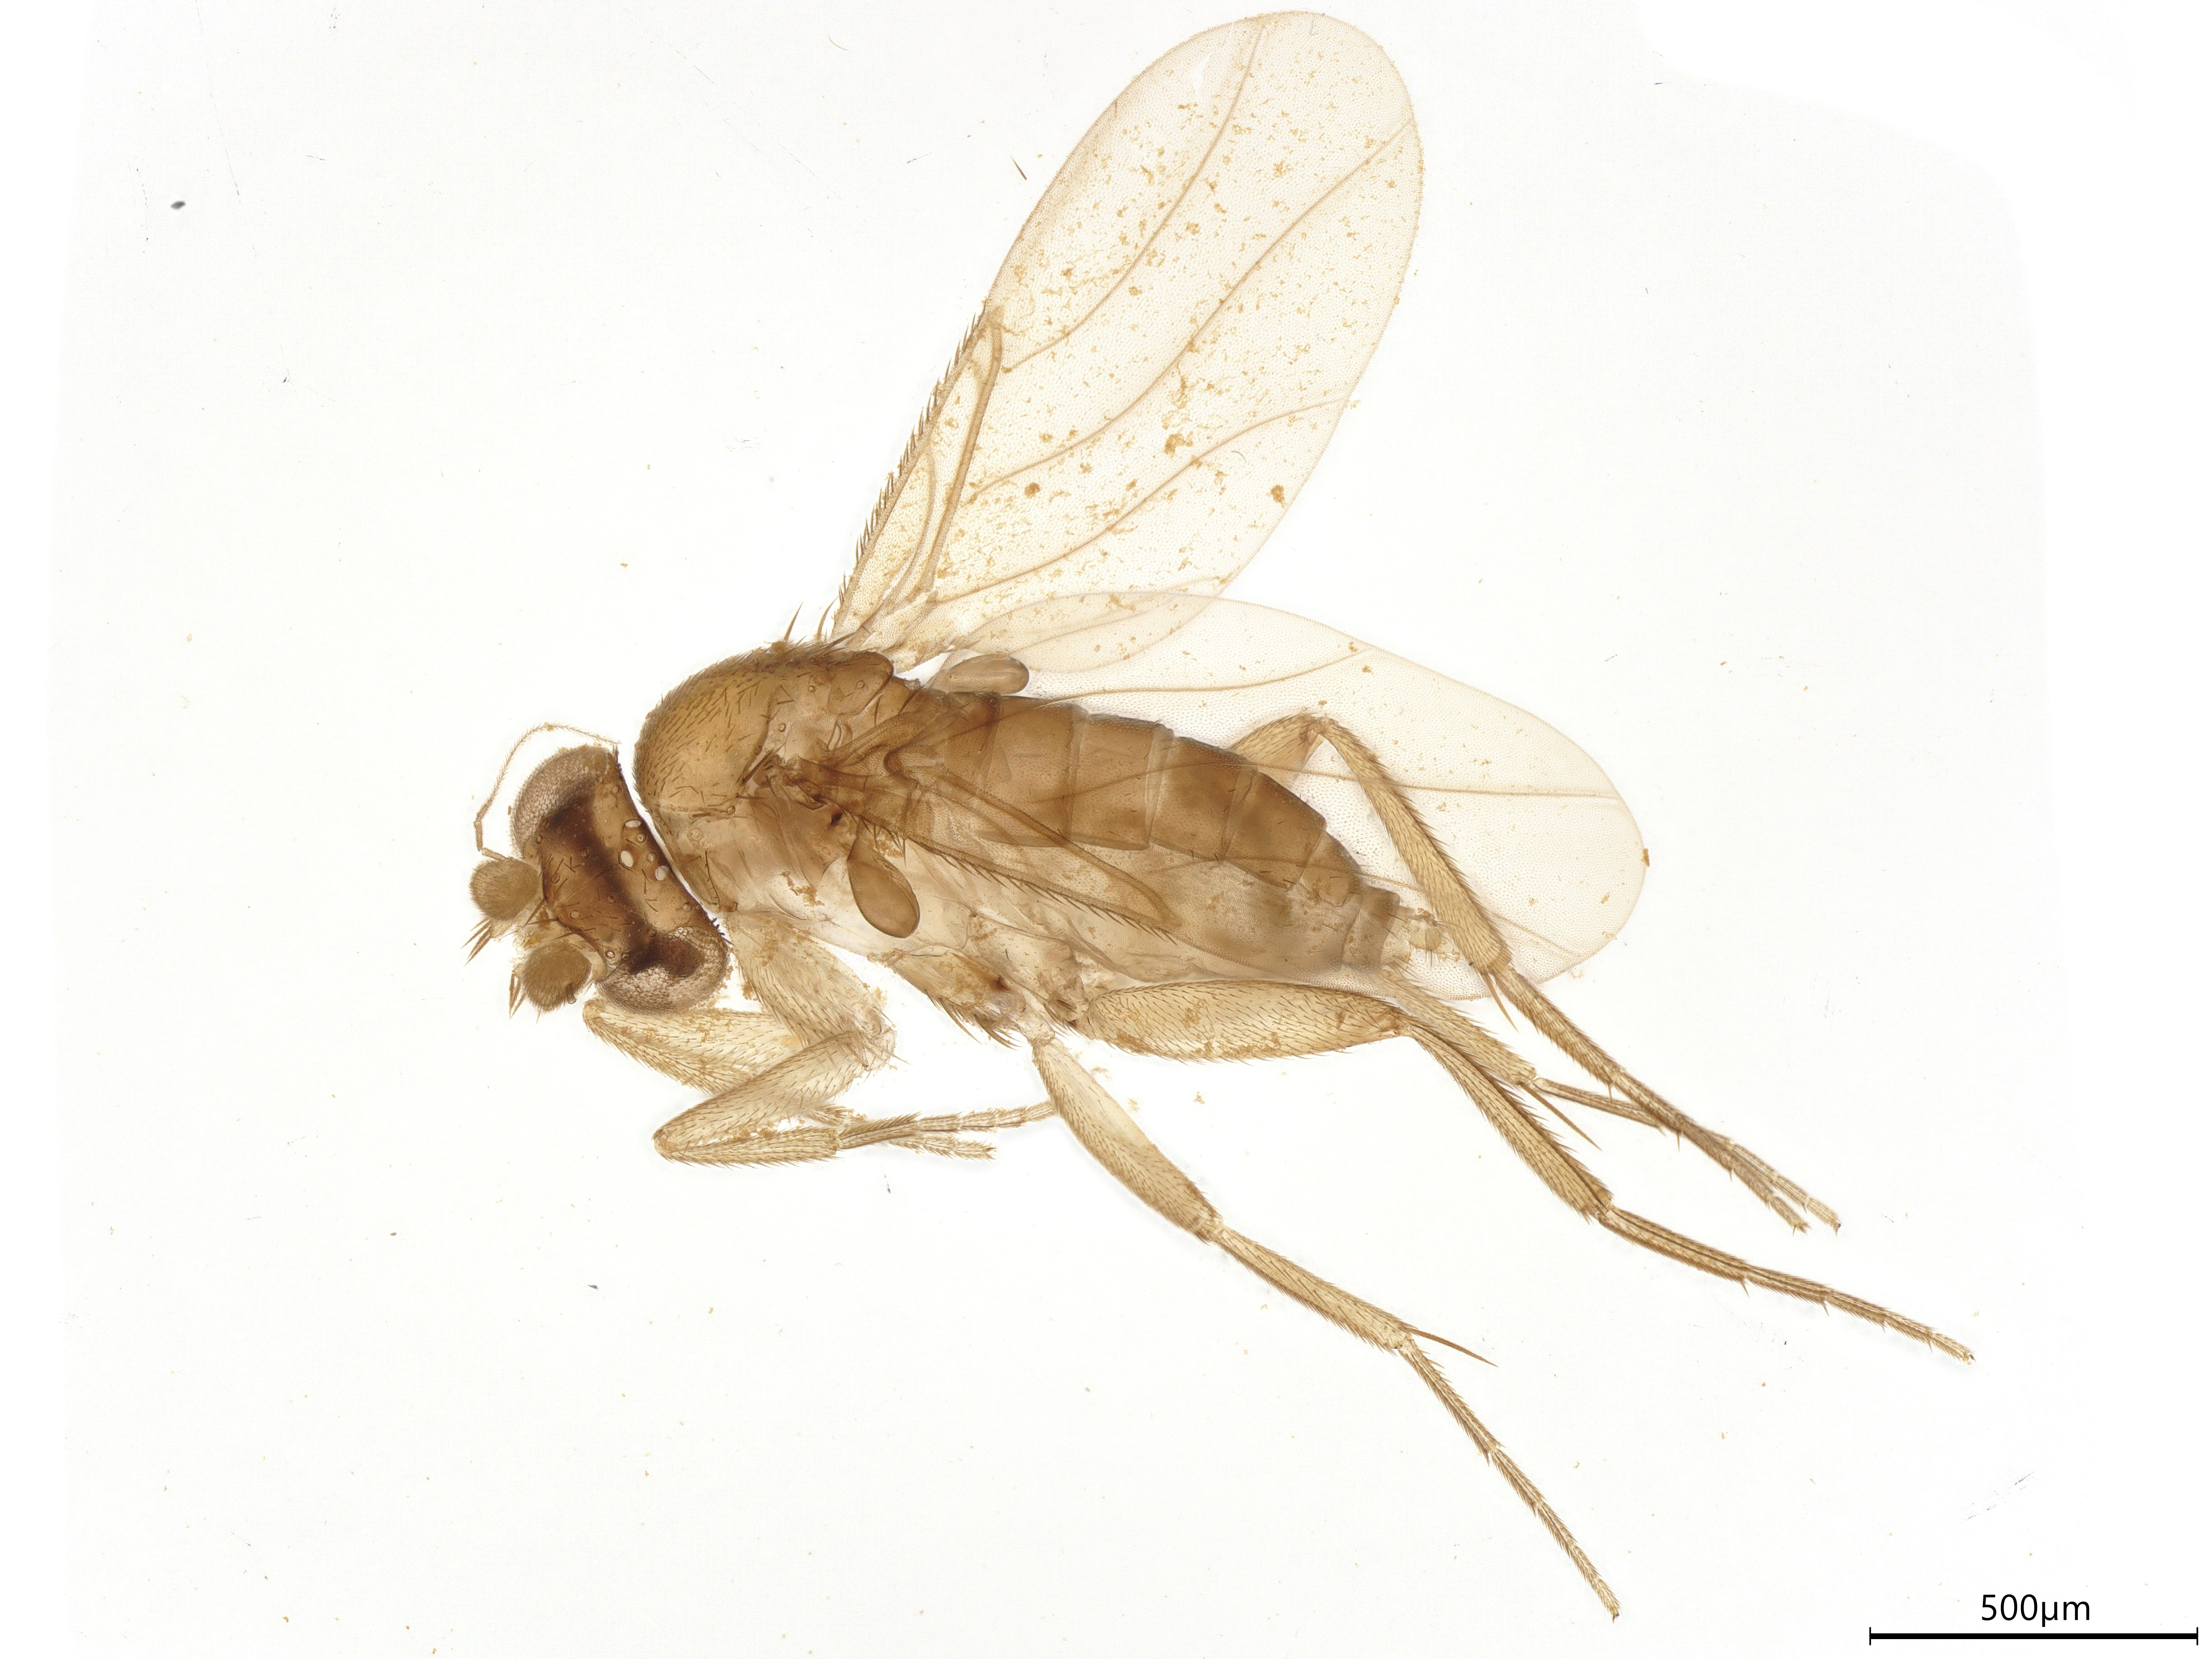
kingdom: Animalia
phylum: Arthropoda
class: Insecta
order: Diptera
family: Phoridae
